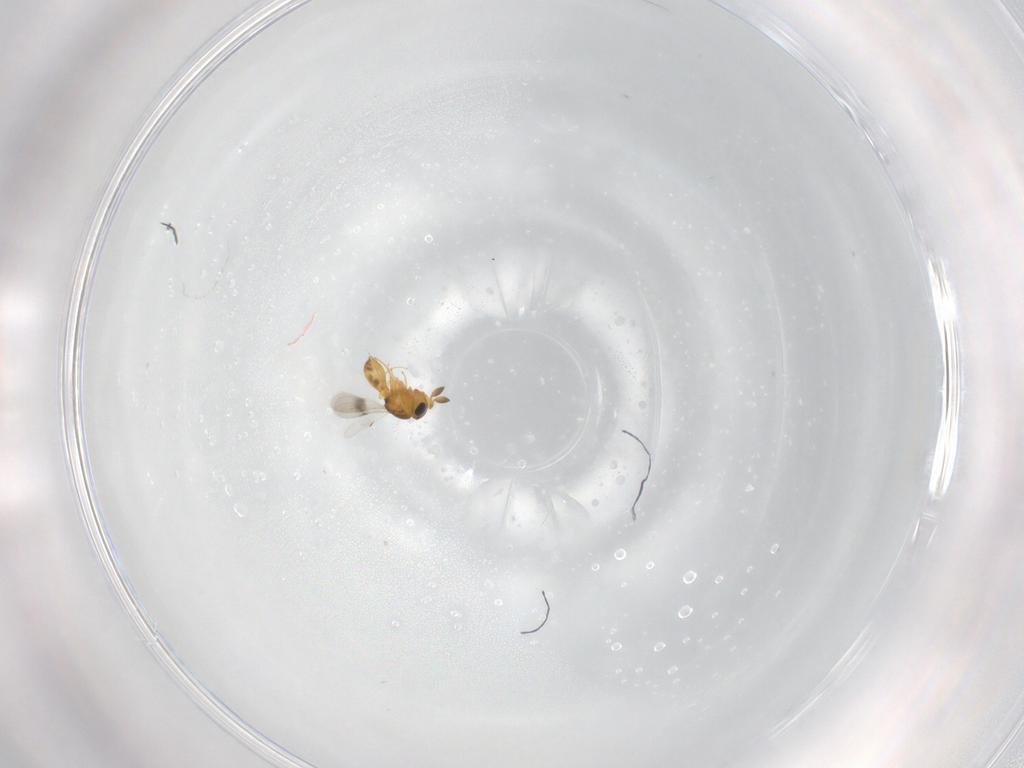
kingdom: Animalia
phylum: Arthropoda
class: Insecta
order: Hymenoptera
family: Scelionidae
